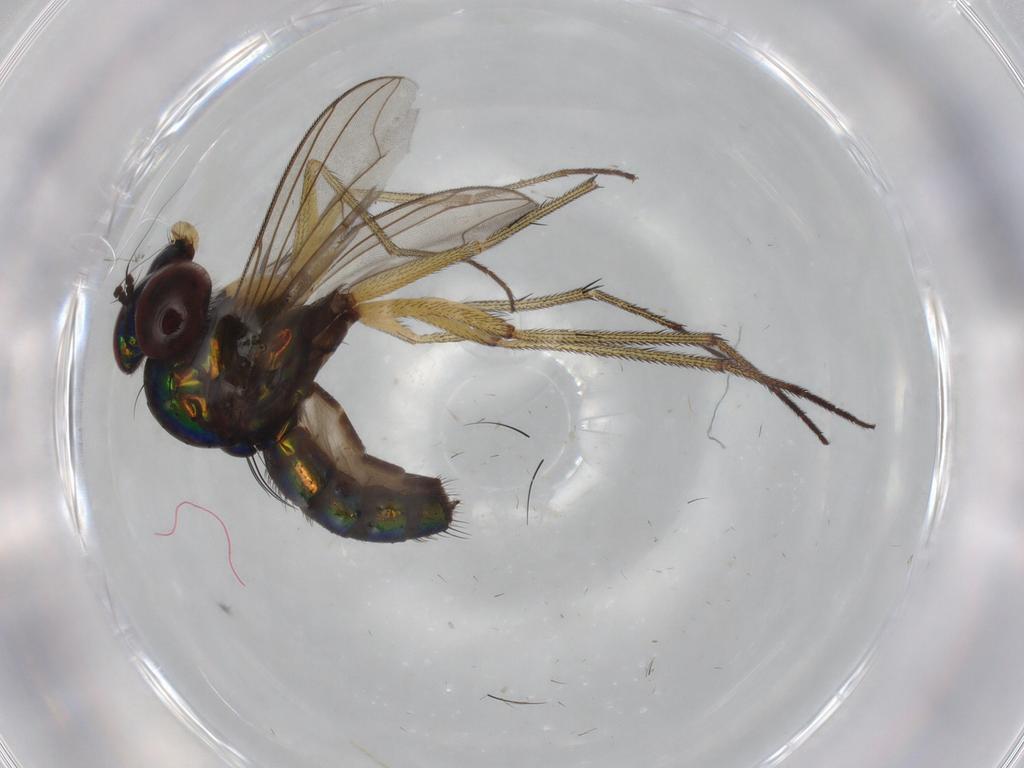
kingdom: Animalia
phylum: Arthropoda
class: Insecta
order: Diptera
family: Dolichopodidae
